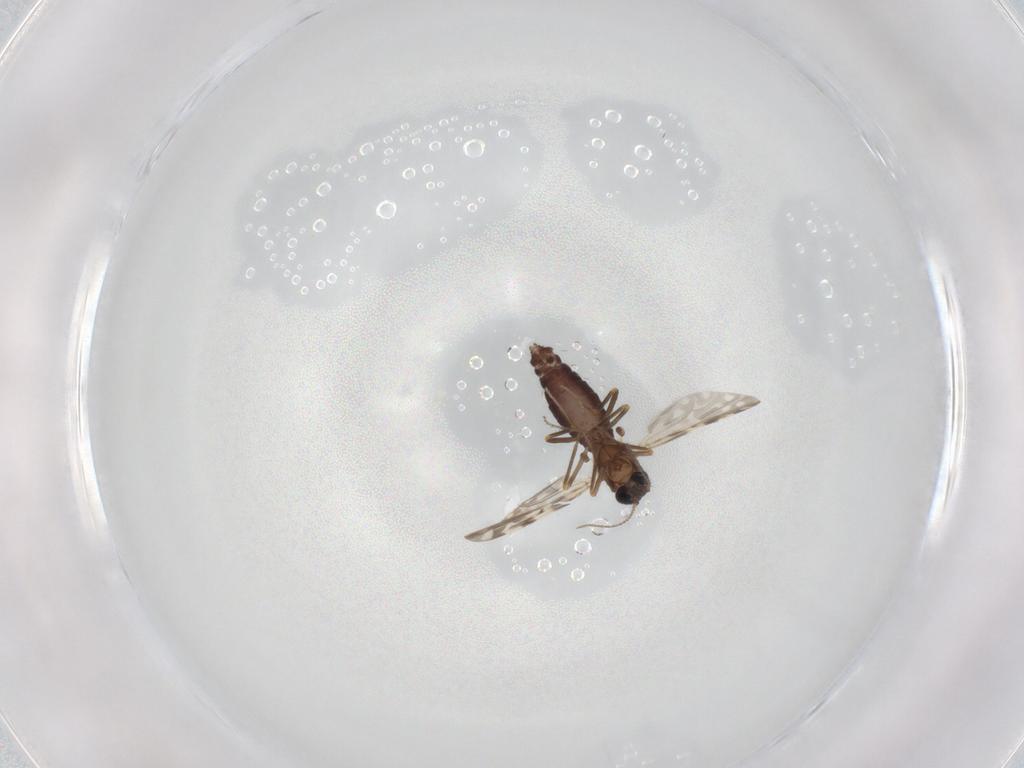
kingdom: Animalia
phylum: Arthropoda
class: Insecta
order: Diptera
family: Ceratopogonidae
